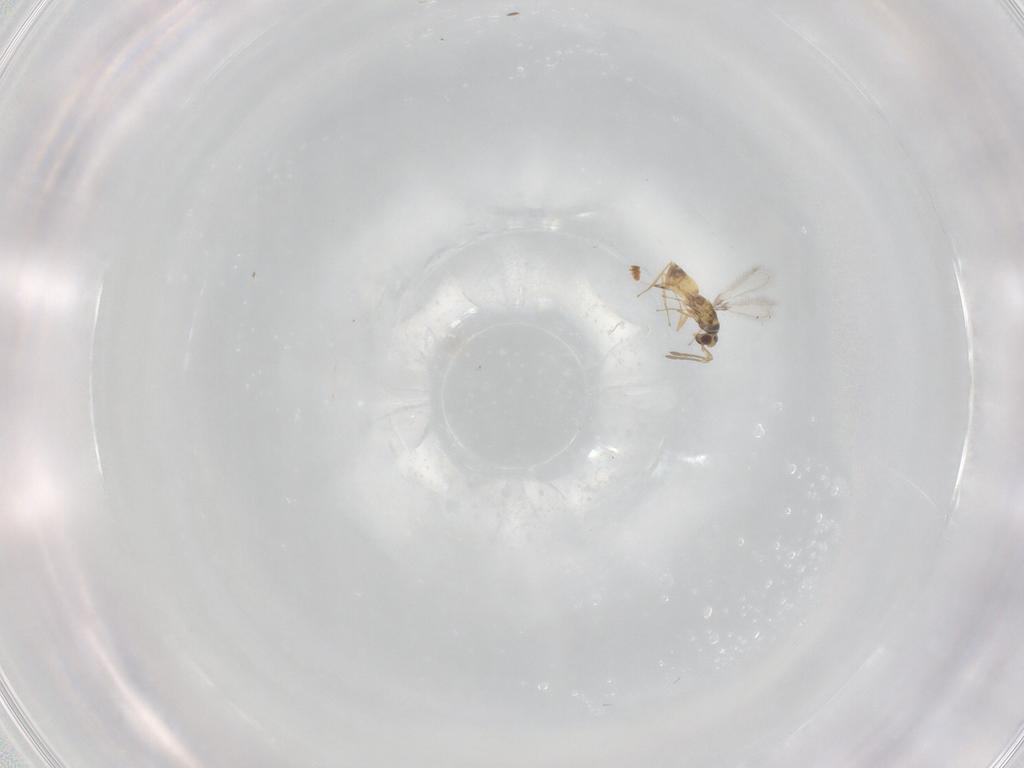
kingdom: Animalia
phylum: Arthropoda
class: Insecta
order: Hymenoptera
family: Mymaridae
